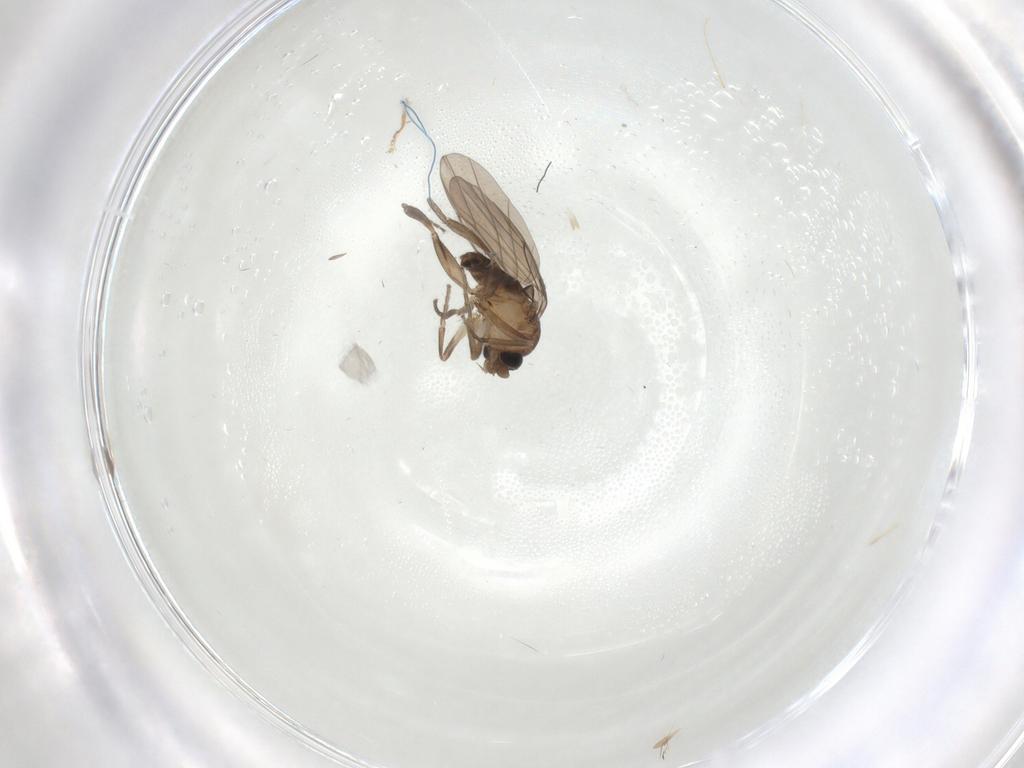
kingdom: Animalia
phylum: Arthropoda
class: Insecta
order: Diptera
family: Limoniidae
